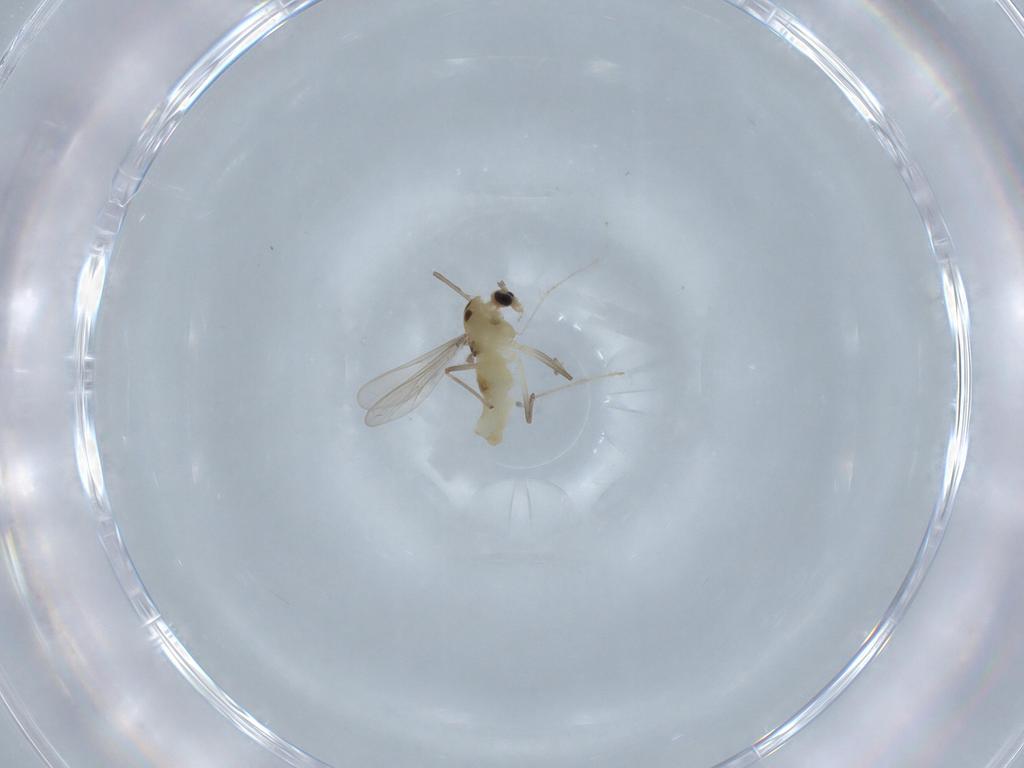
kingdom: Animalia
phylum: Arthropoda
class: Insecta
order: Diptera
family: Chironomidae
